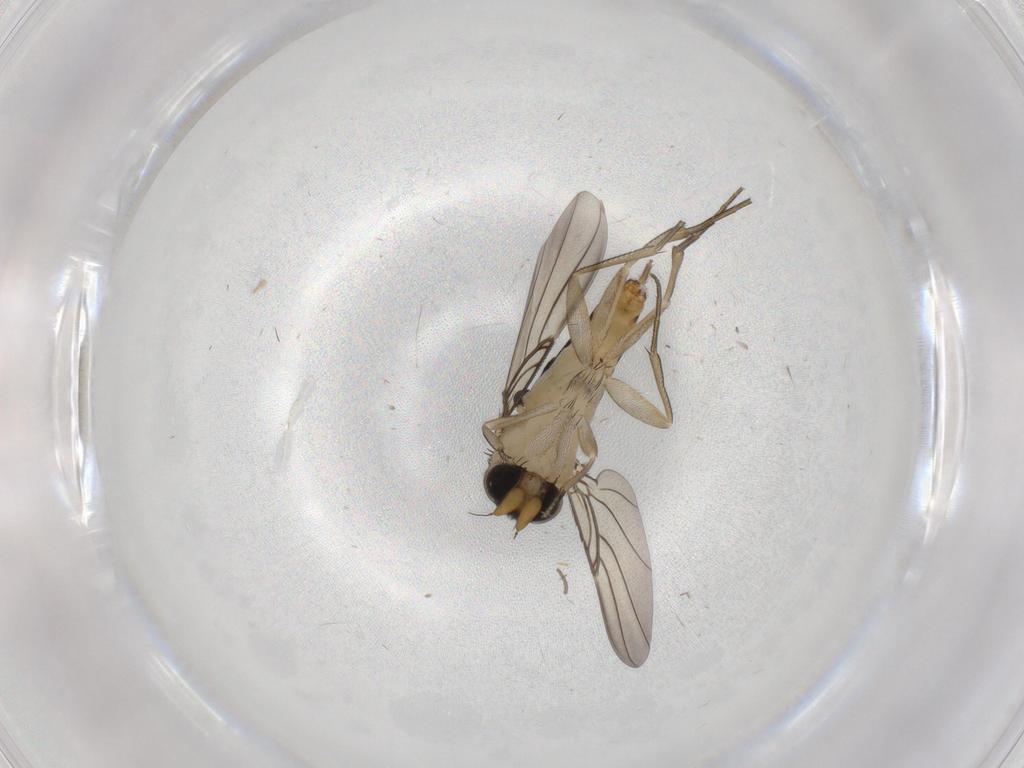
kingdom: Animalia
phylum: Arthropoda
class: Insecta
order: Diptera
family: Phoridae
